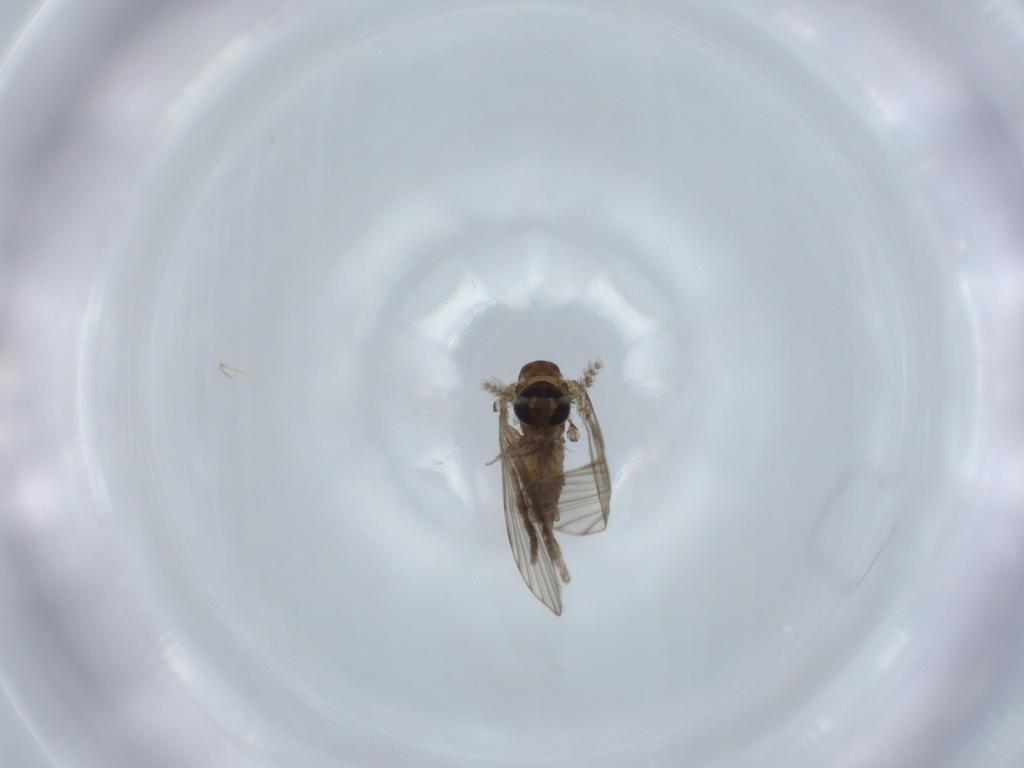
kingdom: Animalia
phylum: Arthropoda
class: Insecta
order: Diptera
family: Psychodidae
